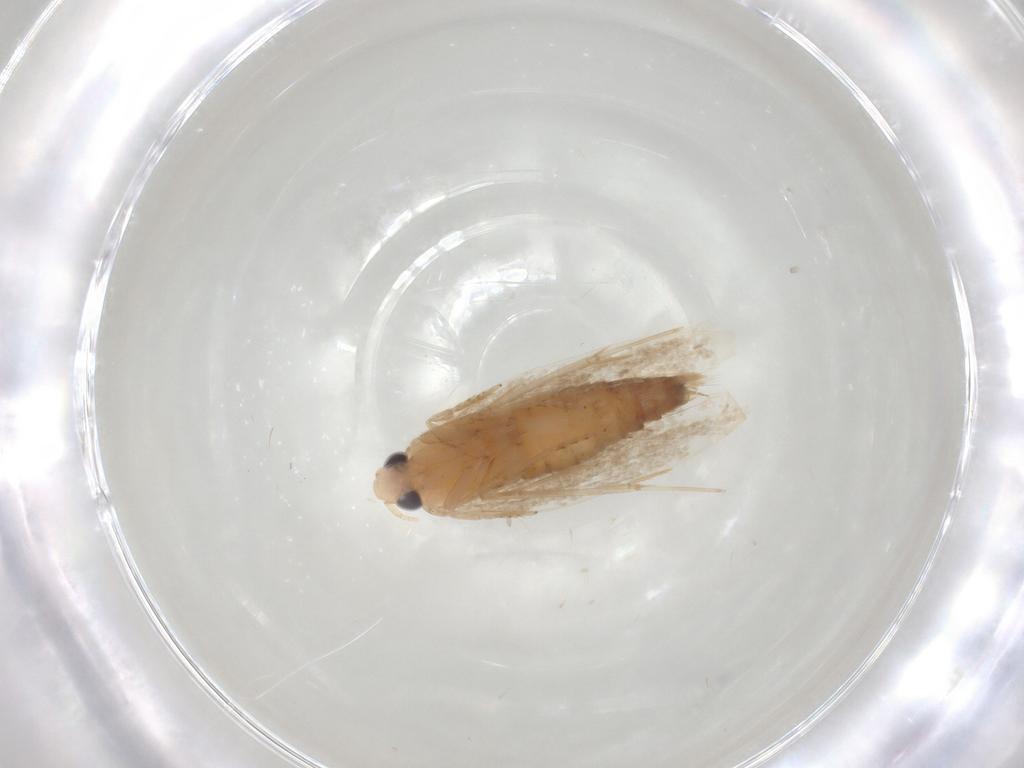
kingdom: Animalia
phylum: Arthropoda
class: Insecta
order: Lepidoptera
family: Tineidae
